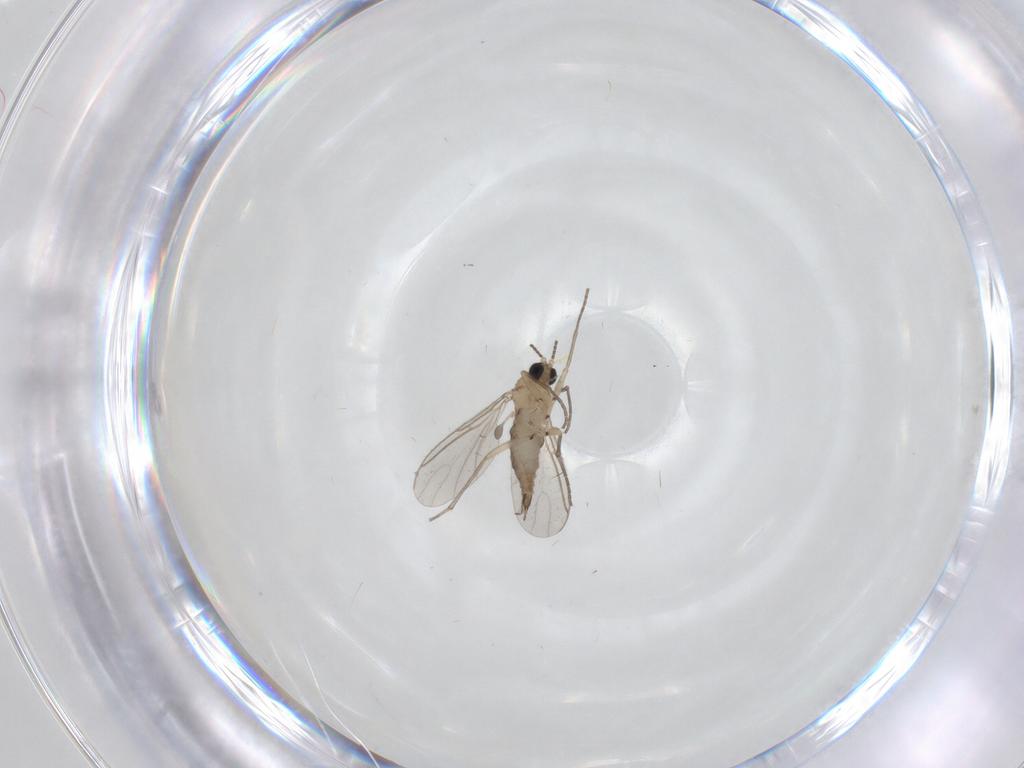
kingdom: Animalia
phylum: Arthropoda
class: Insecta
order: Diptera
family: Sciaridae
